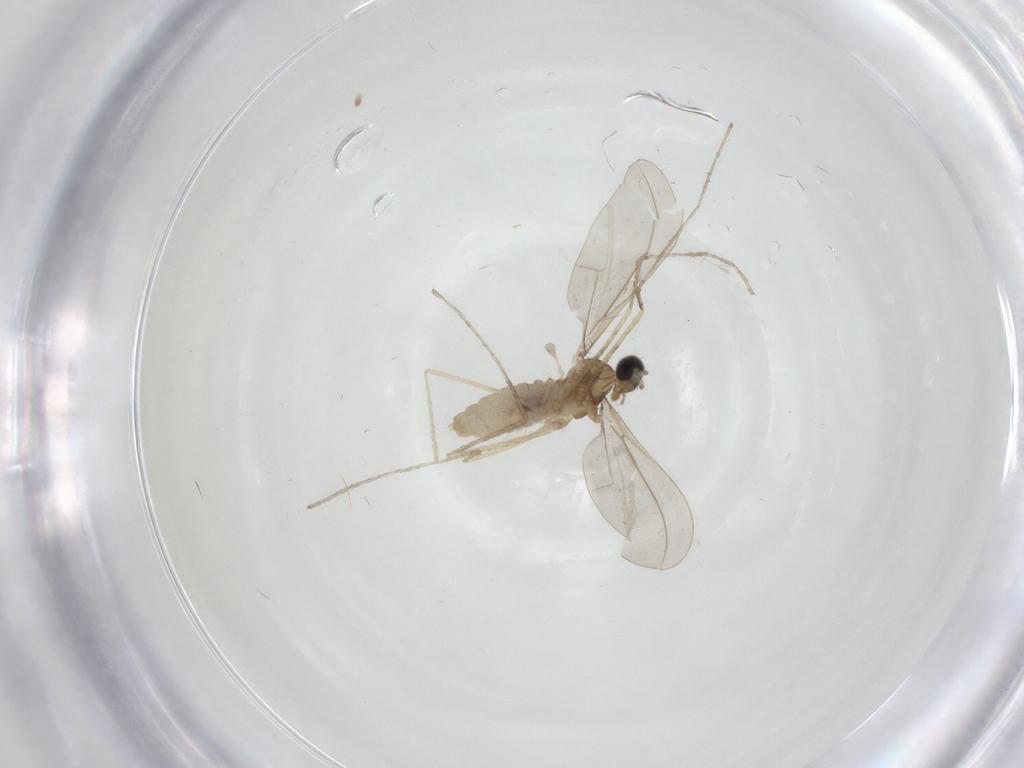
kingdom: Animalia
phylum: Arthropoda
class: Insecta
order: Diptera
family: Cecidomyiidae
